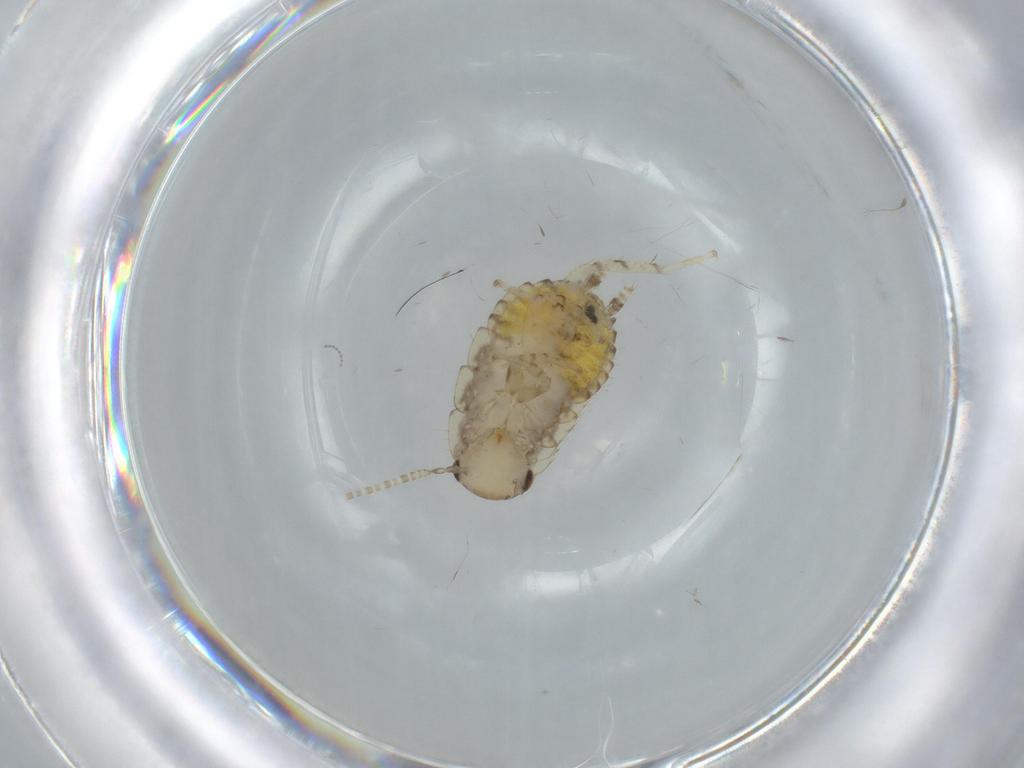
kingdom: Animalia
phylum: Arthropoda
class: Insecta
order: Blattodea
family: Ectobiidae
